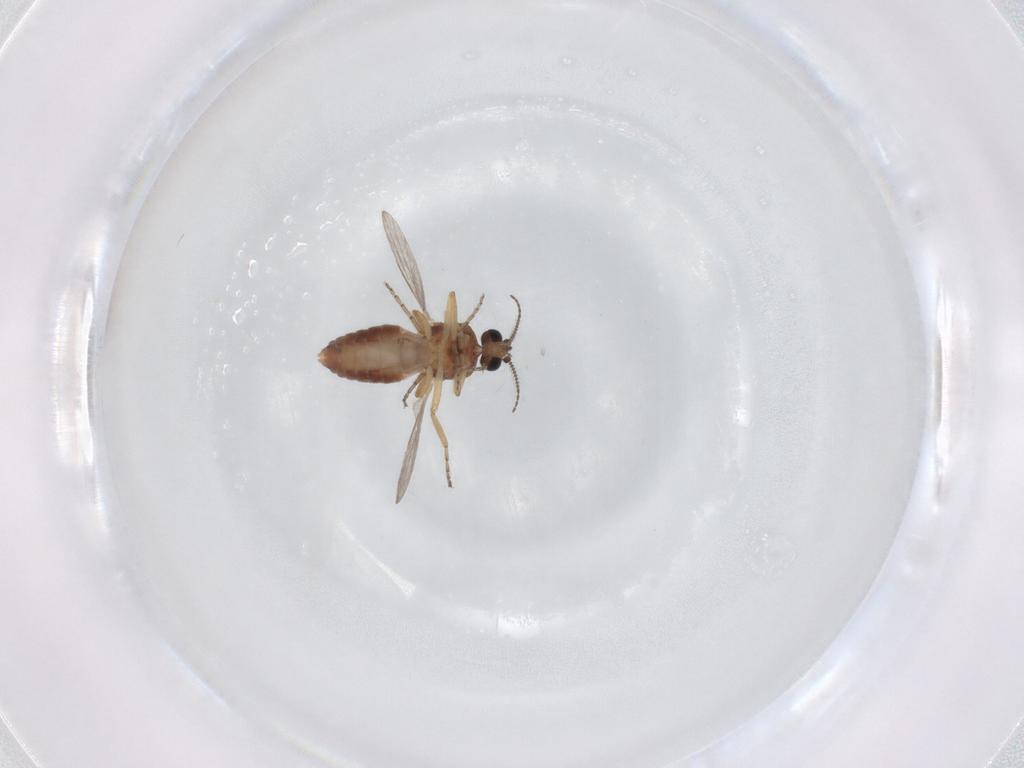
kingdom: Animalia
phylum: Arthropoda
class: Insecta
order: Diptera
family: Ceratopogonidae
